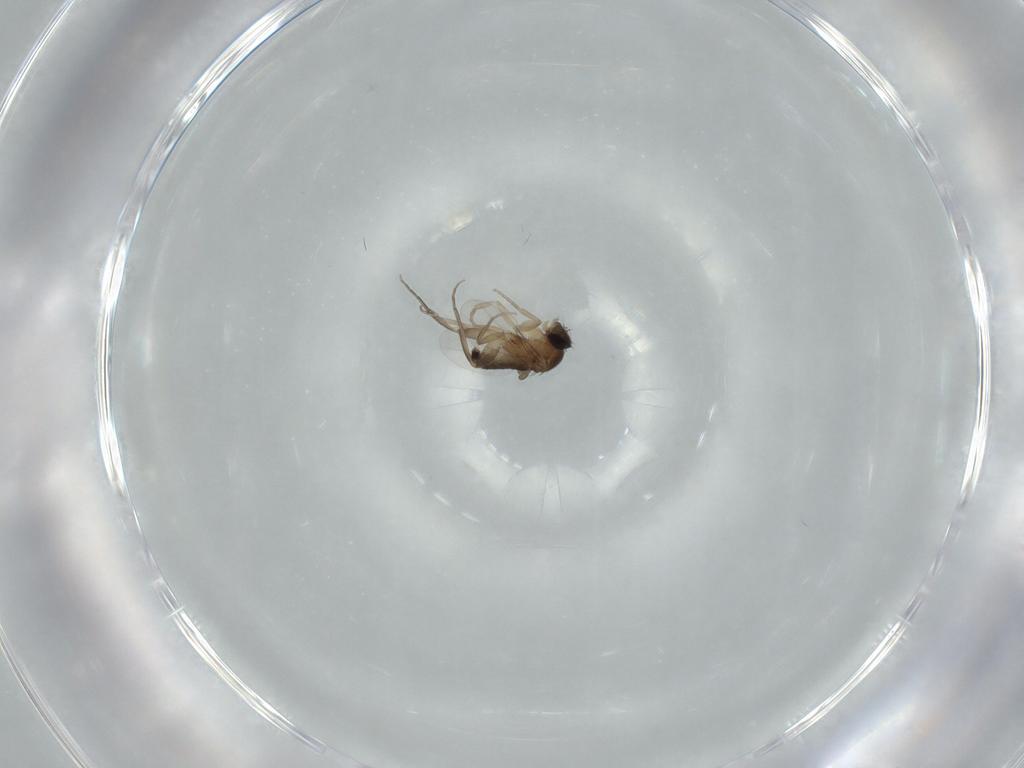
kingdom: Animalia
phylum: Arthropoda
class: Insecta
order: Diptera
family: Phoridae
